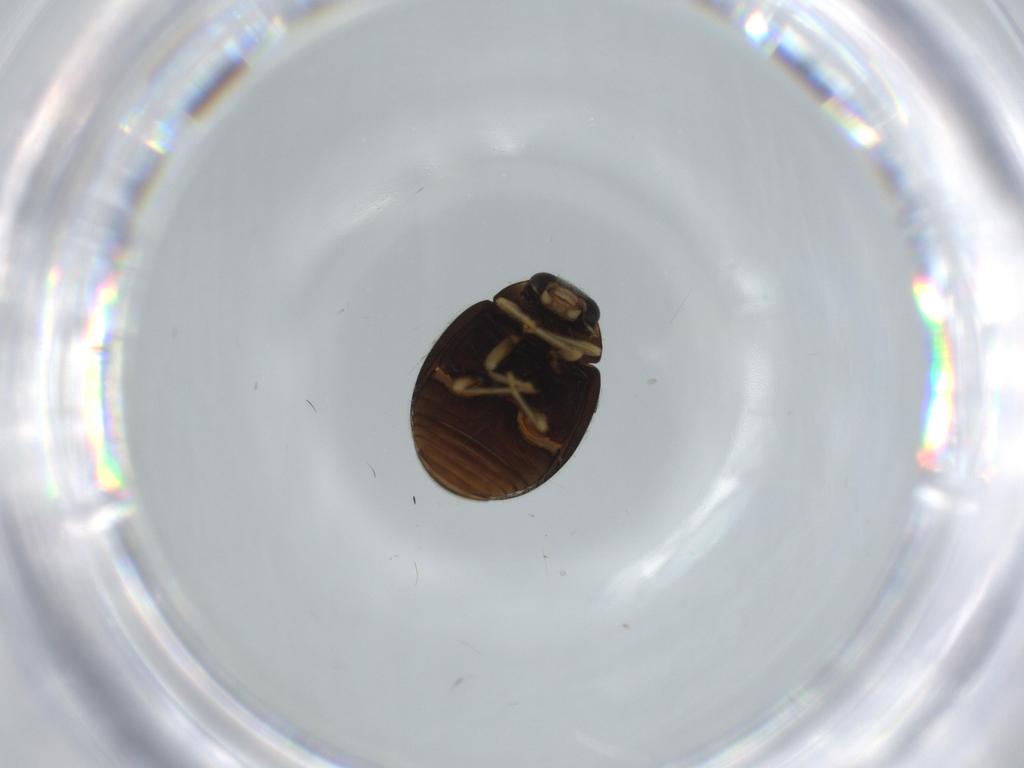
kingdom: Animalia
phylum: Arthropoda
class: Insecta
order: Coleoptera
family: Coccinellidae
